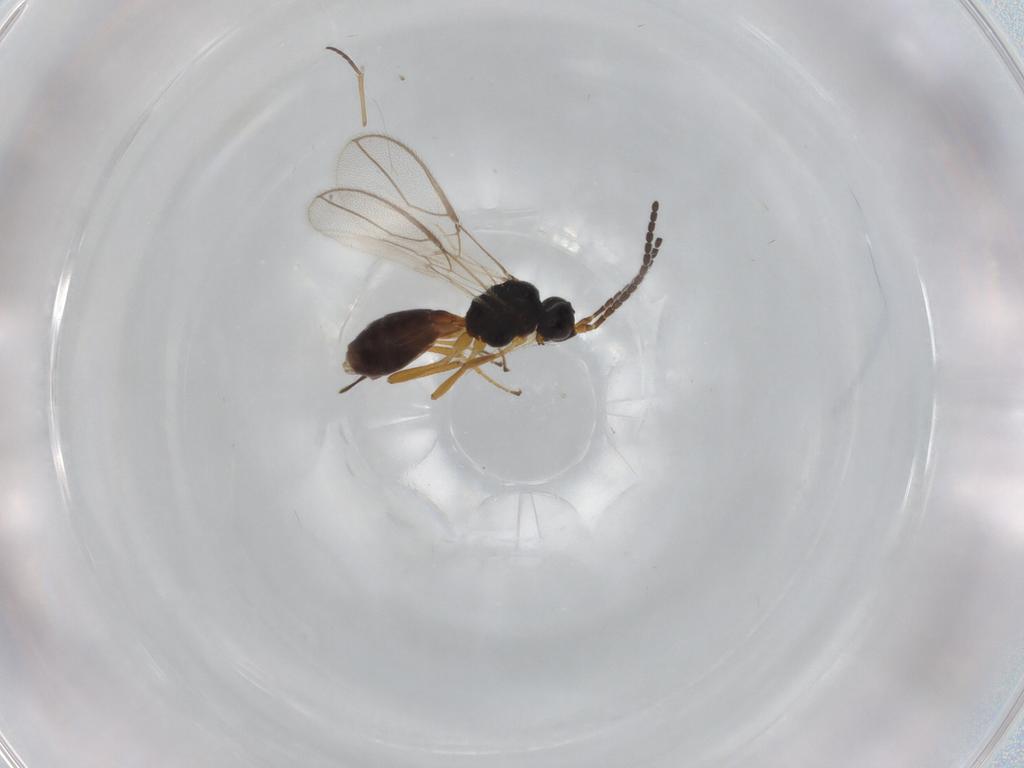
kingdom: Animalia
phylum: Arthropoda
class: Insecta
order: Hymenoptera
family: Braconidae
